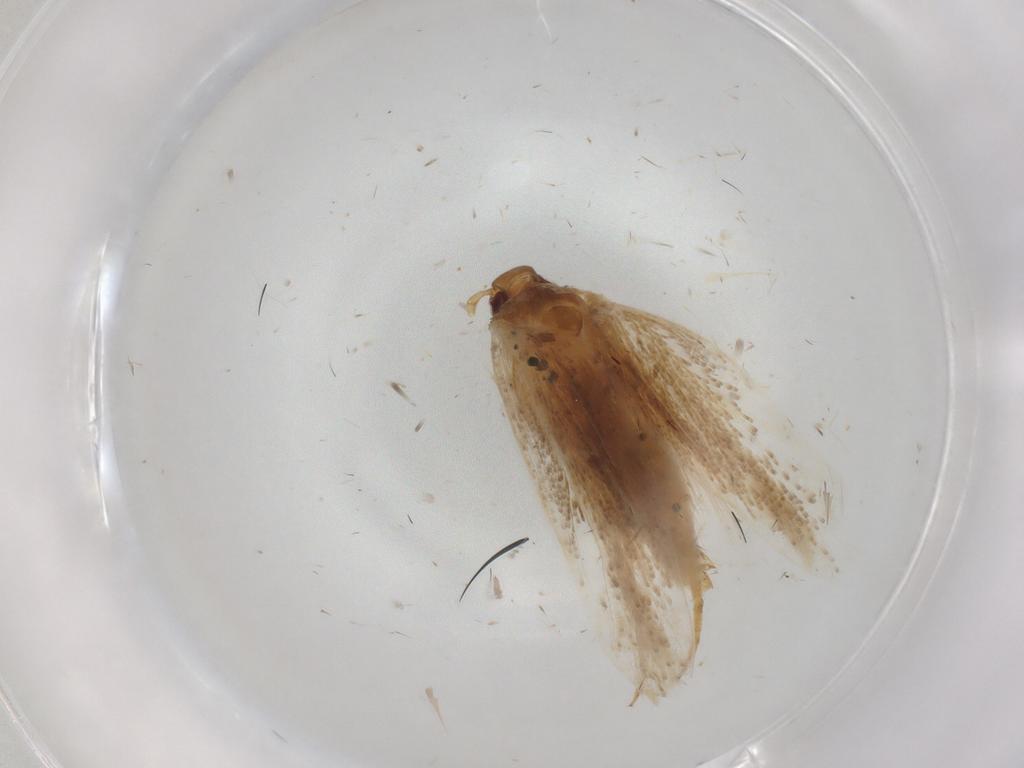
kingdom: Animalia
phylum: Arthropoda
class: Insecta
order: Lepidoptera
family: Gelechiidae
